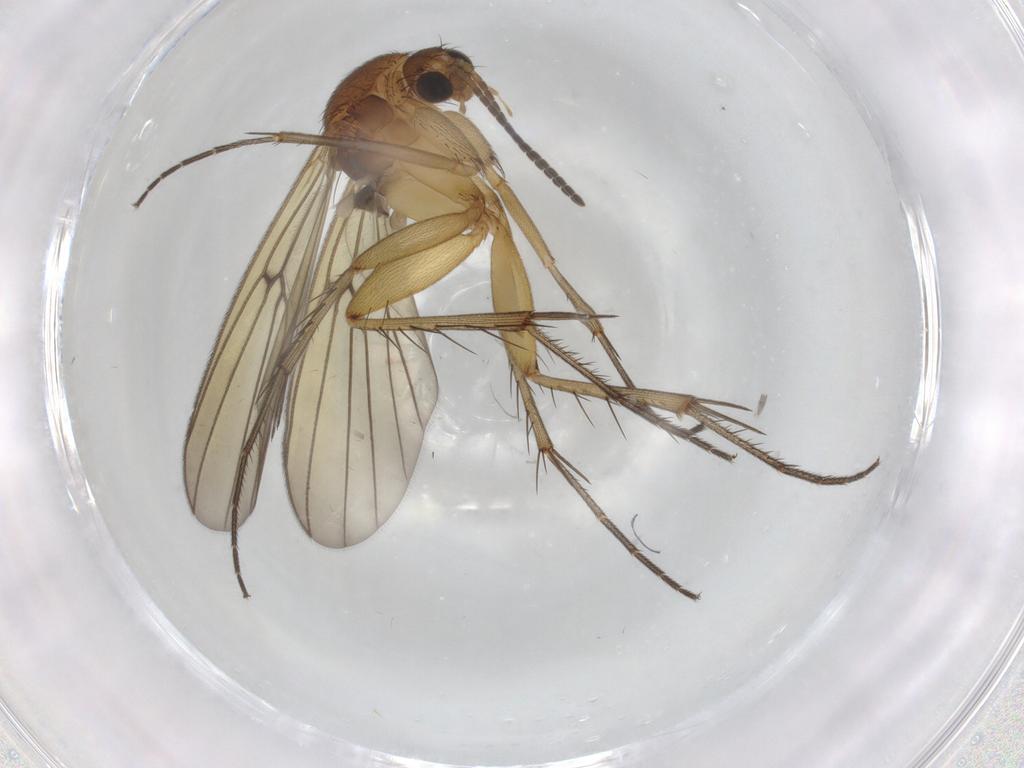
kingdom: Animalia
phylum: Arthropoda
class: Insecta
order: Diptera
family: Mycetophilidae
